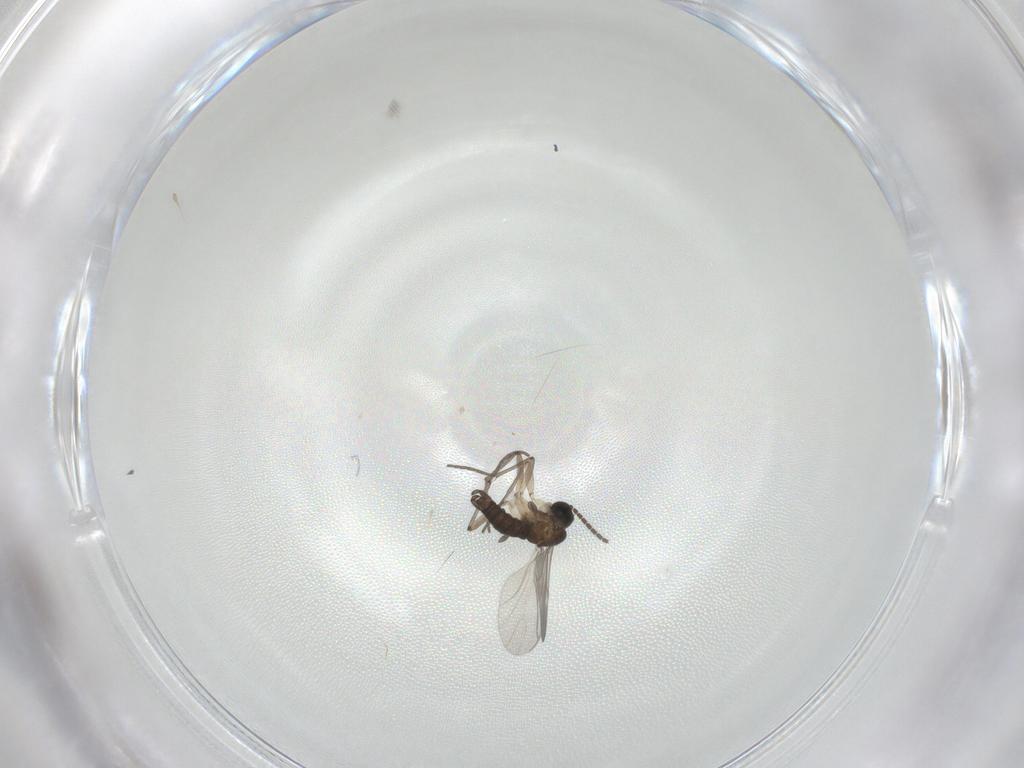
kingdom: Animalia
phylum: Arthropoda
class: Insecta
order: Diptera
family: Sciaridae
